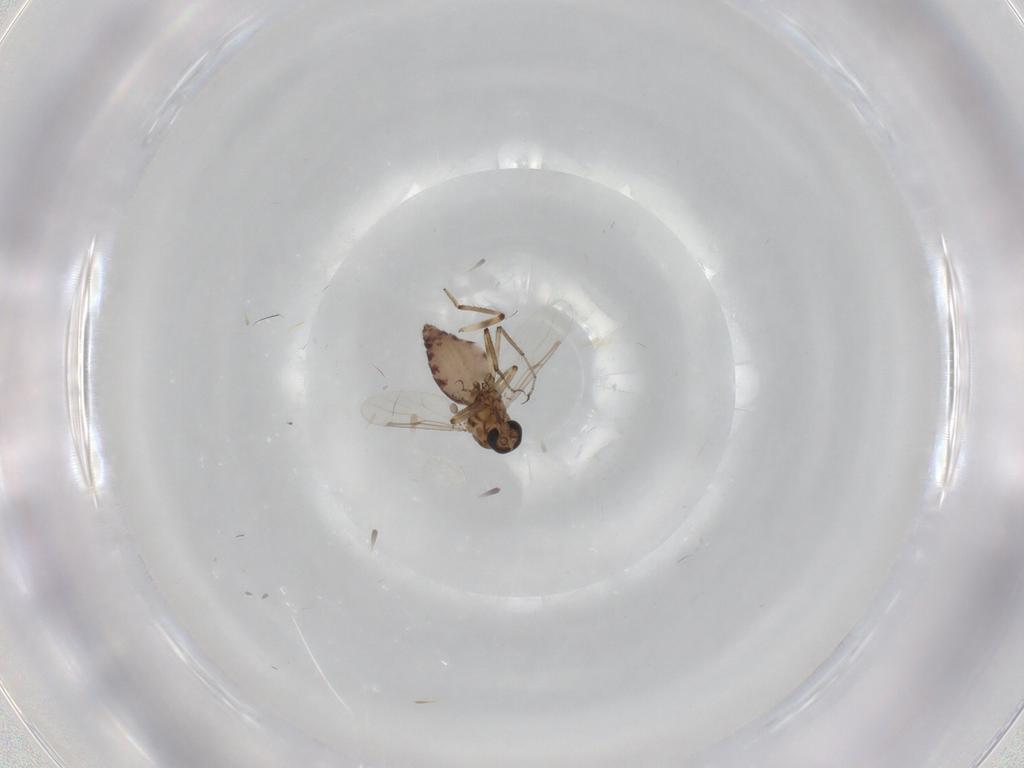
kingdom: Animalia
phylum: Arthropoda
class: Insecta
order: Diptera
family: Ceratopogonidae
